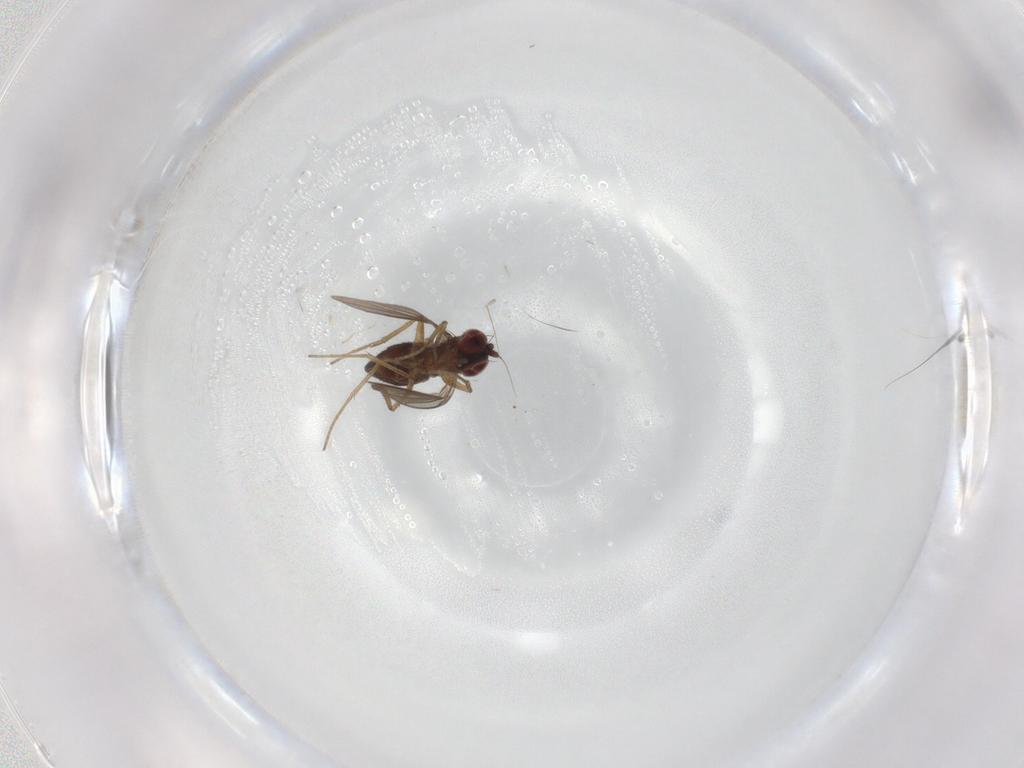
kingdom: Animalia
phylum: Arthropoda
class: Insecta
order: Diptera
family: Dolichopodidae
